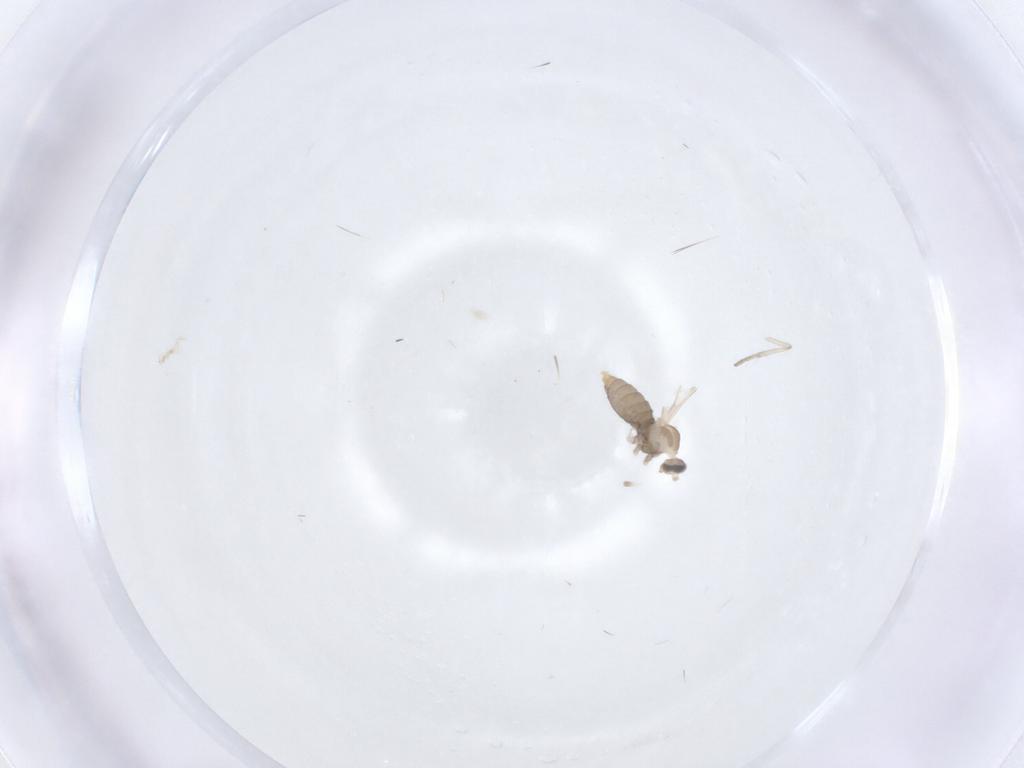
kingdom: Animalia
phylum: Arthropoda
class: Insecta
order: Diptera
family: Cecidomyiidae
